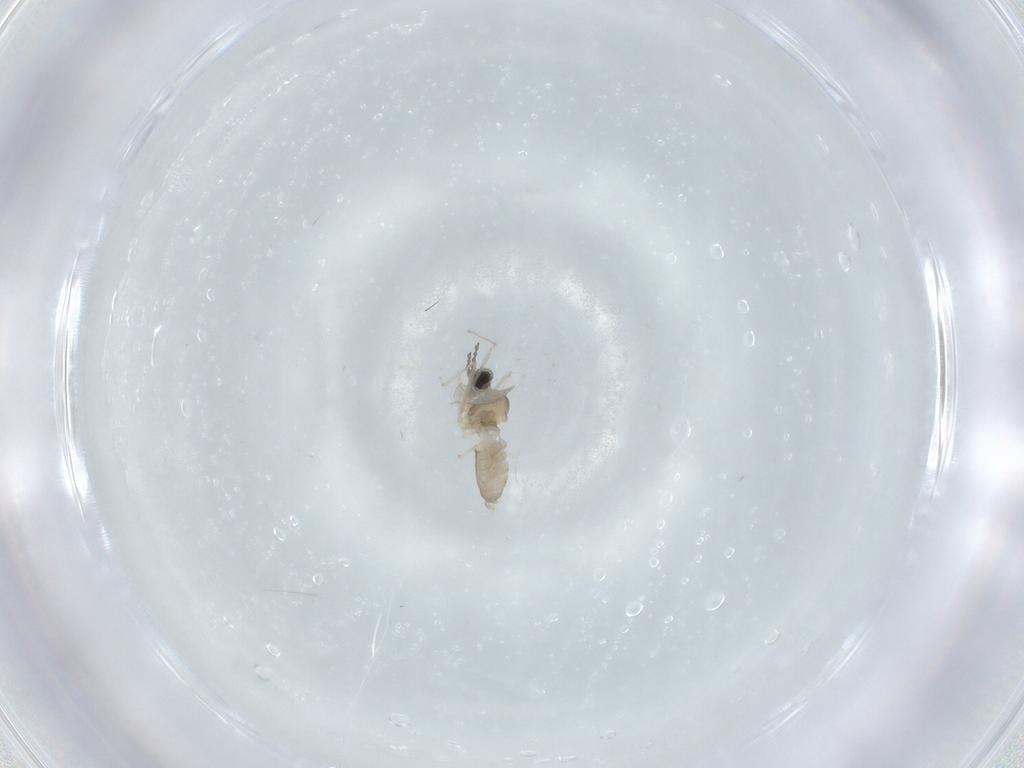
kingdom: Animalia
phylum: Arthropoda
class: Insecta
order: Diptera
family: Cecidomyiidae
